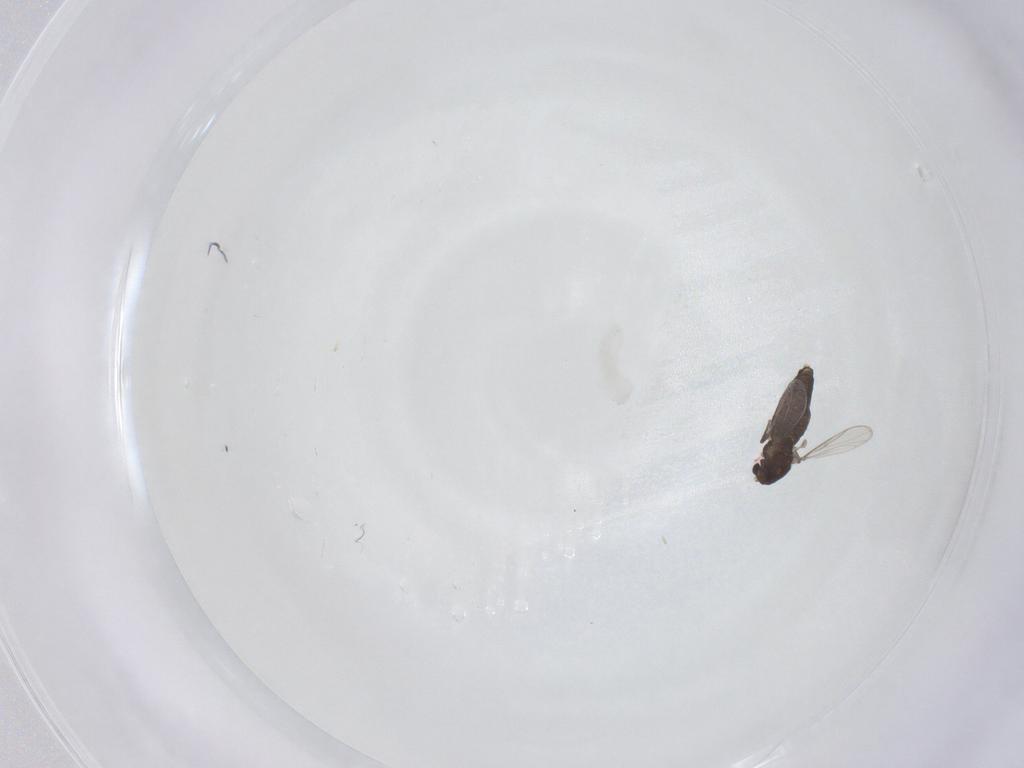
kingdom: Animalia
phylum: Arthropoda
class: Insecta
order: Diptera
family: Chironomidae
